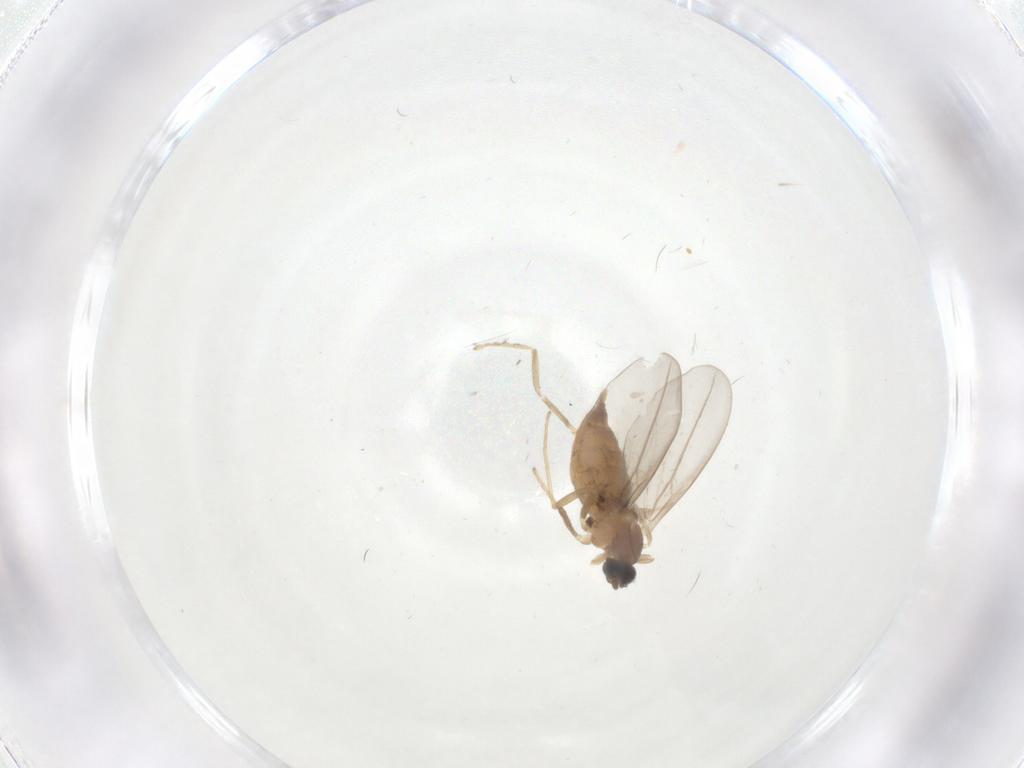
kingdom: Animalia
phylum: Arthropoda
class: Insecta
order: Diptera
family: Cecidomyiidae
